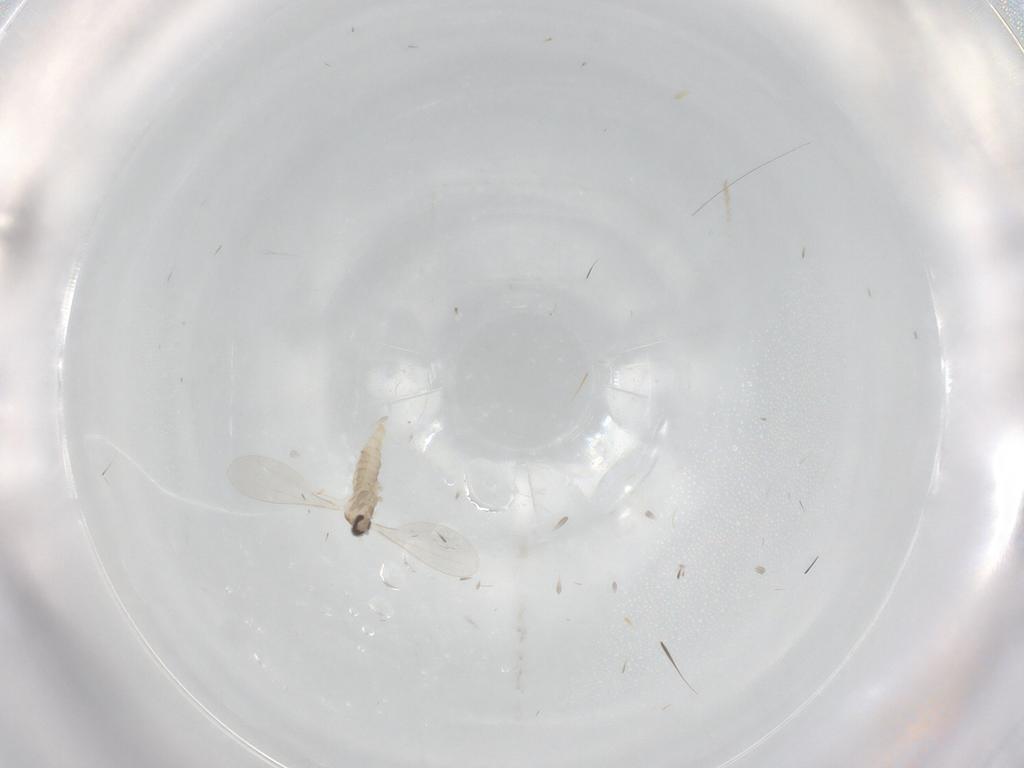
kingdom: Animalia
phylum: Arthropoda
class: Insecta
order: Diptera
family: Cecidomyiidae
